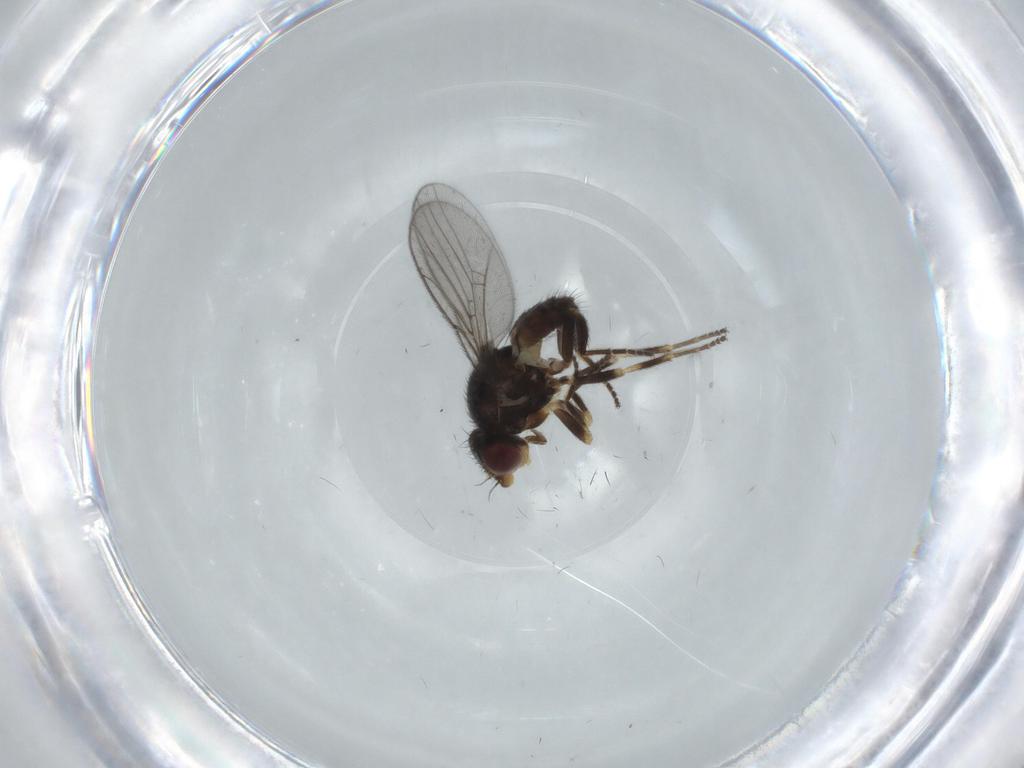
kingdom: Animalia
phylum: Arthropoda
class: Insecta
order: Diptera
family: Chloropidae
